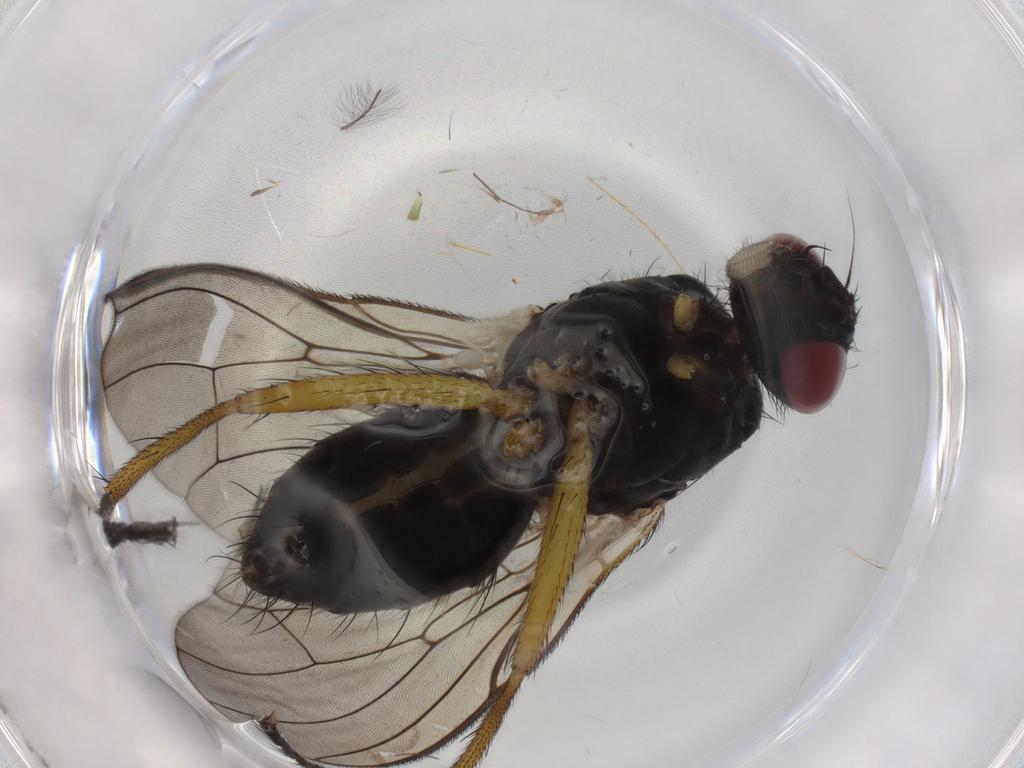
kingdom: Animalia
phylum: Arthropoda
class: Insecta
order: Diptera
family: Muscidae
